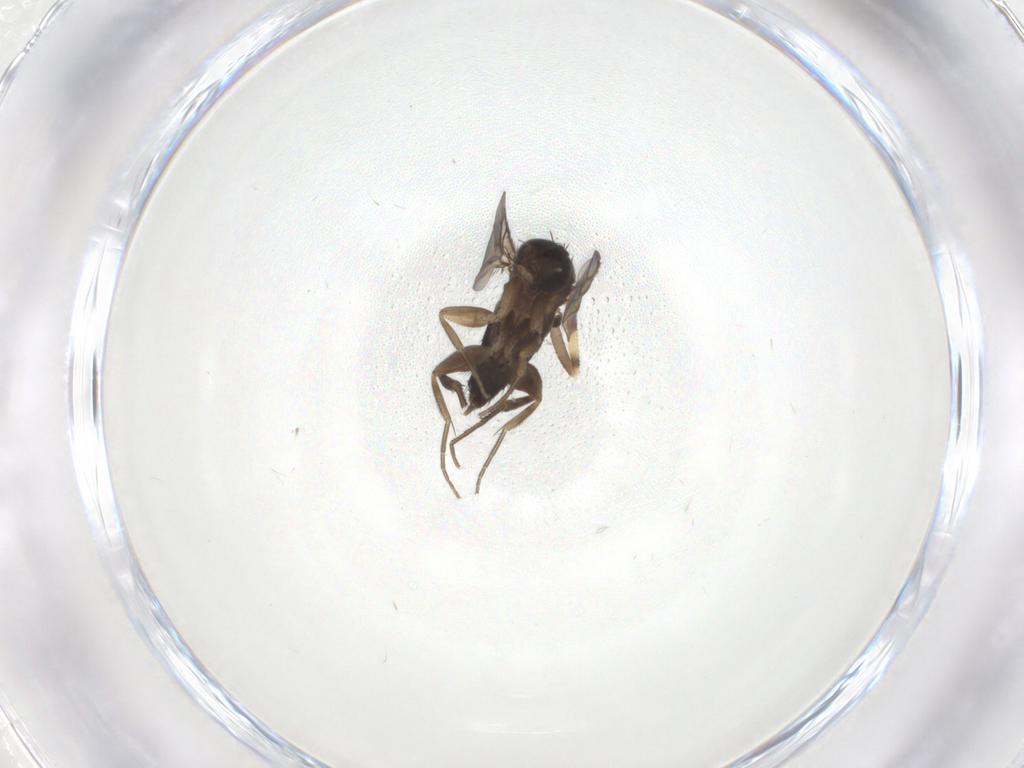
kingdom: Animalia
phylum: Arthropoda
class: Insecta
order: Diptera
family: Phoridae
